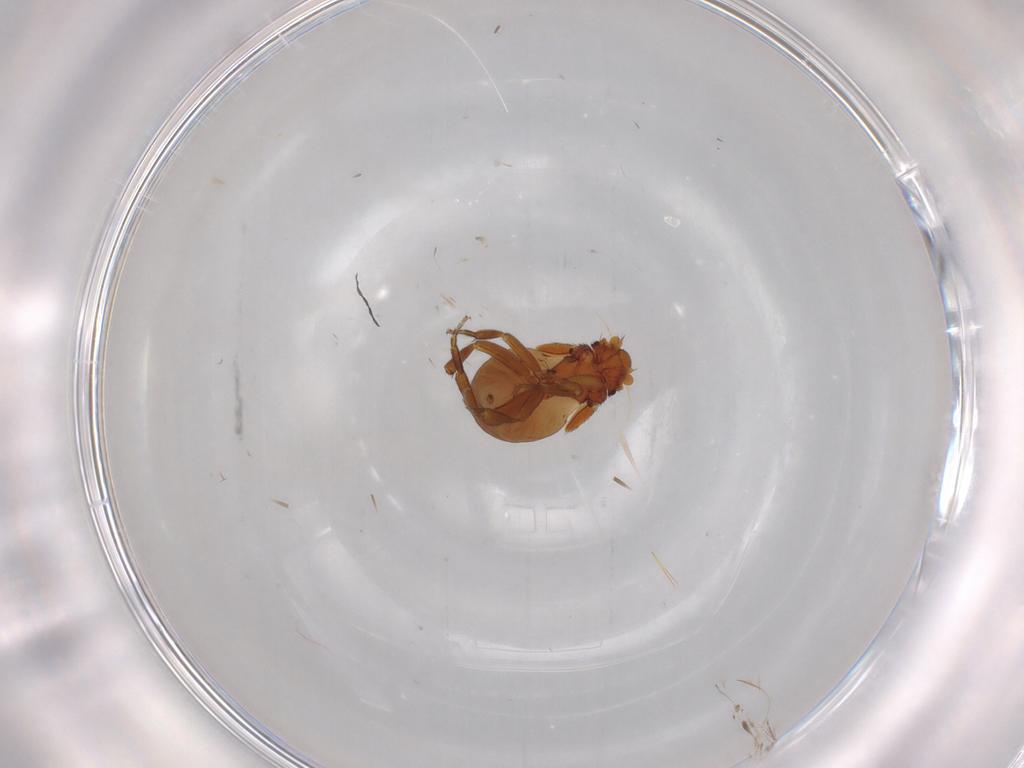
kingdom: Animalia
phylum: Arthropoda
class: Insecta
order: Diptera
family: Phoridae
